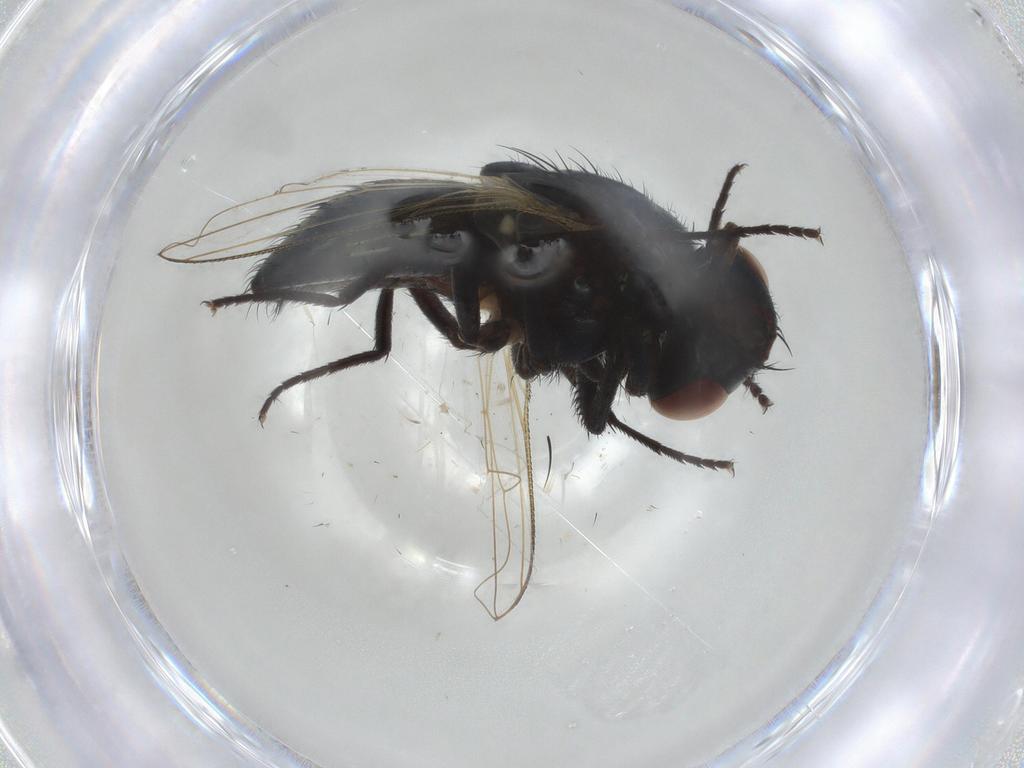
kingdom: Animalia
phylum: Arthropoda
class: Insecta
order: Diptera
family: Muscidae
